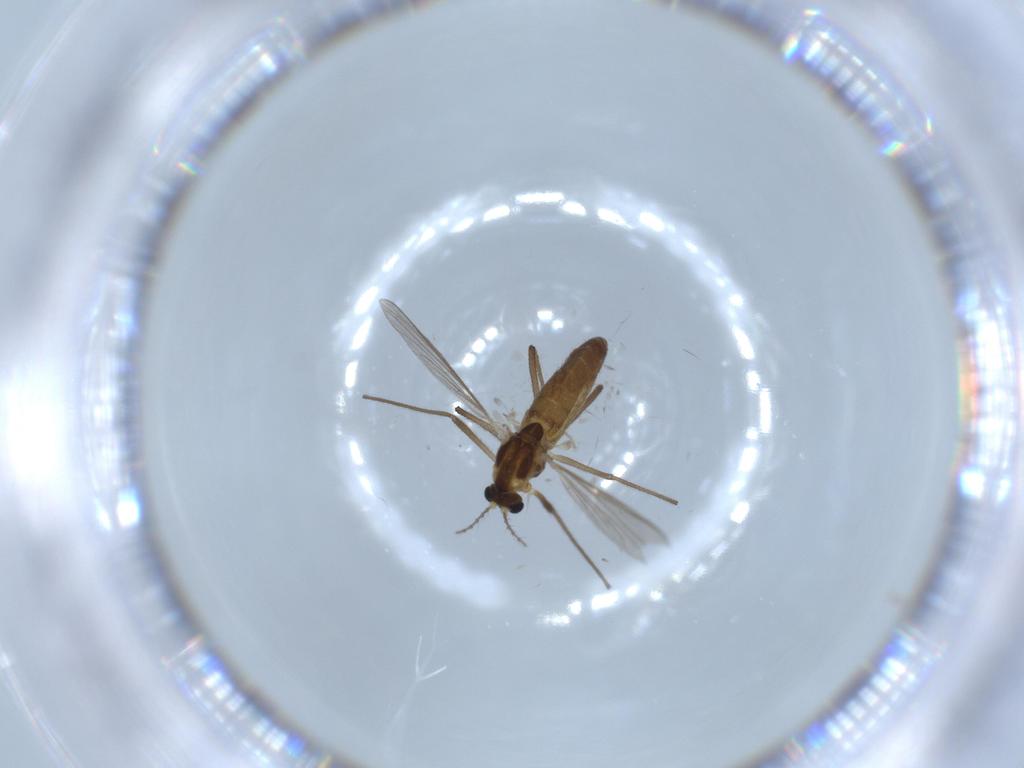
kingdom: Animalia
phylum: Arthropoda
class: Insecta
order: Diptera
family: Chironomidae
